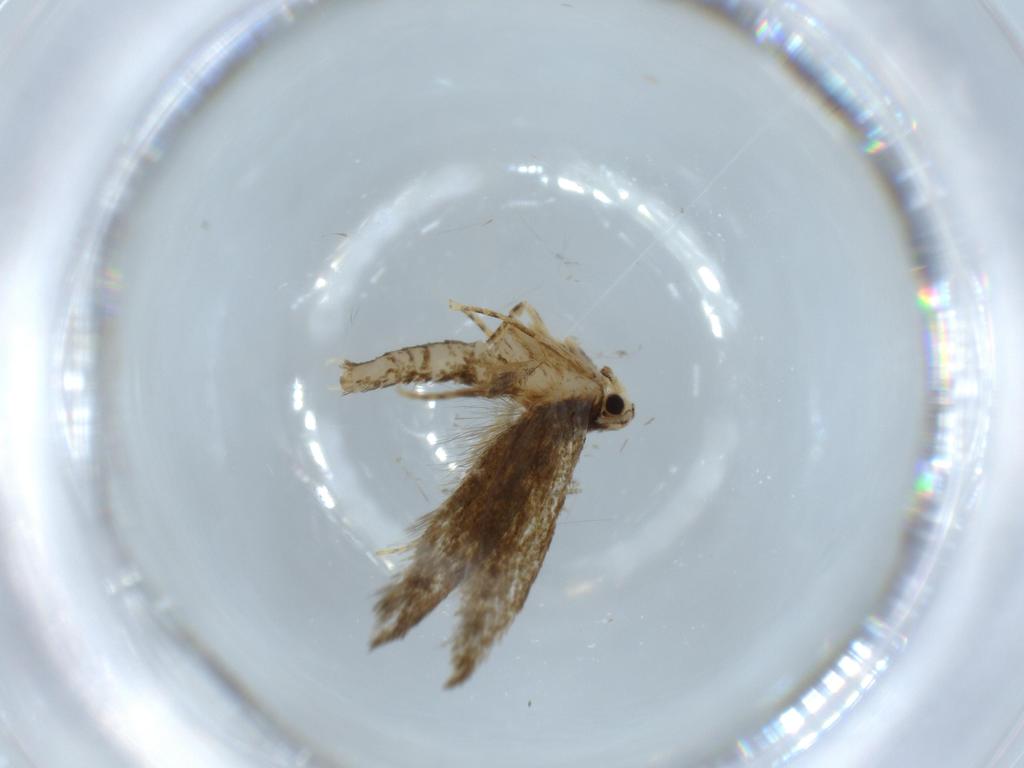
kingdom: Animalia
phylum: Arthropoda
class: Insecta
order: Lepidoptera
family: Tineidae
